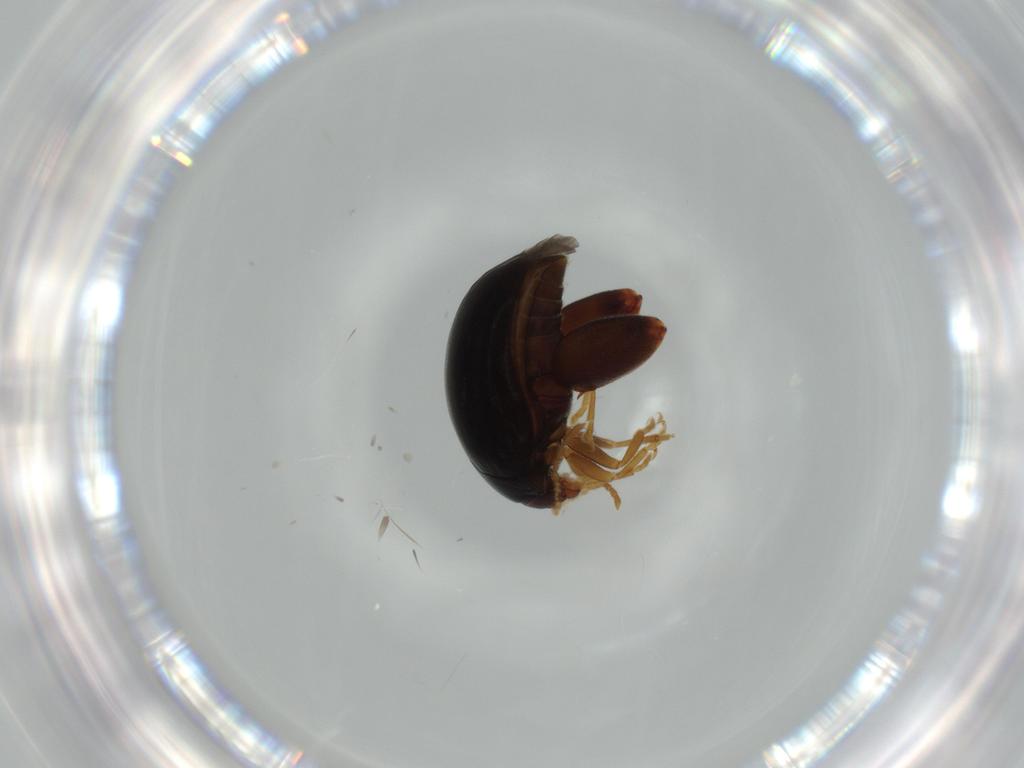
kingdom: Animalia
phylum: Arthropoda
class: Insecta
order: Coleoptera
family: Chrysomelidae
